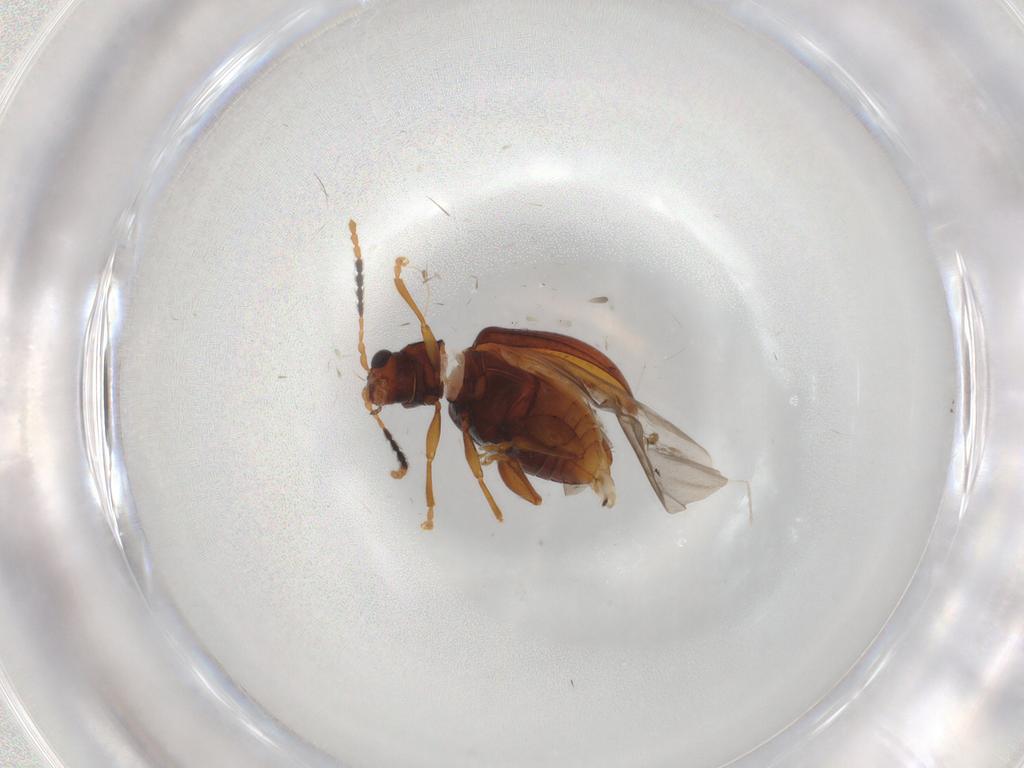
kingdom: Animalia
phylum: Arthropoda
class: Insecta
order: Coleoptera
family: Chrysomelidae
